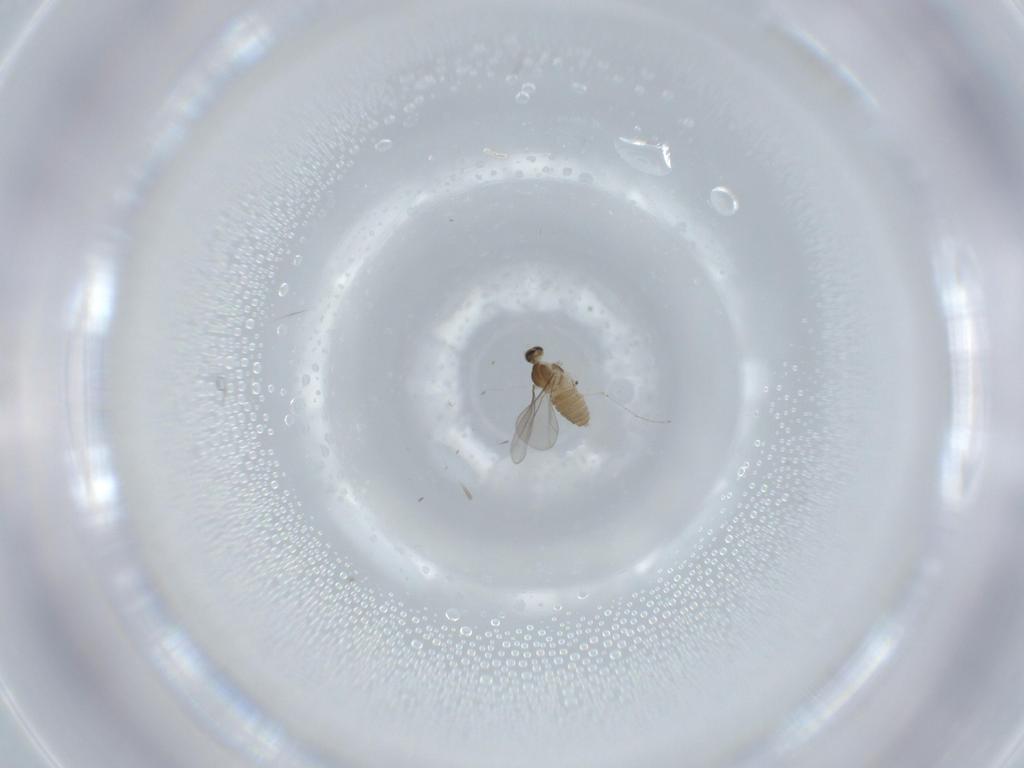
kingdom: Animalia
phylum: Arthropoda
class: Insecta
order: Diptera
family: Cecidomyiidae
